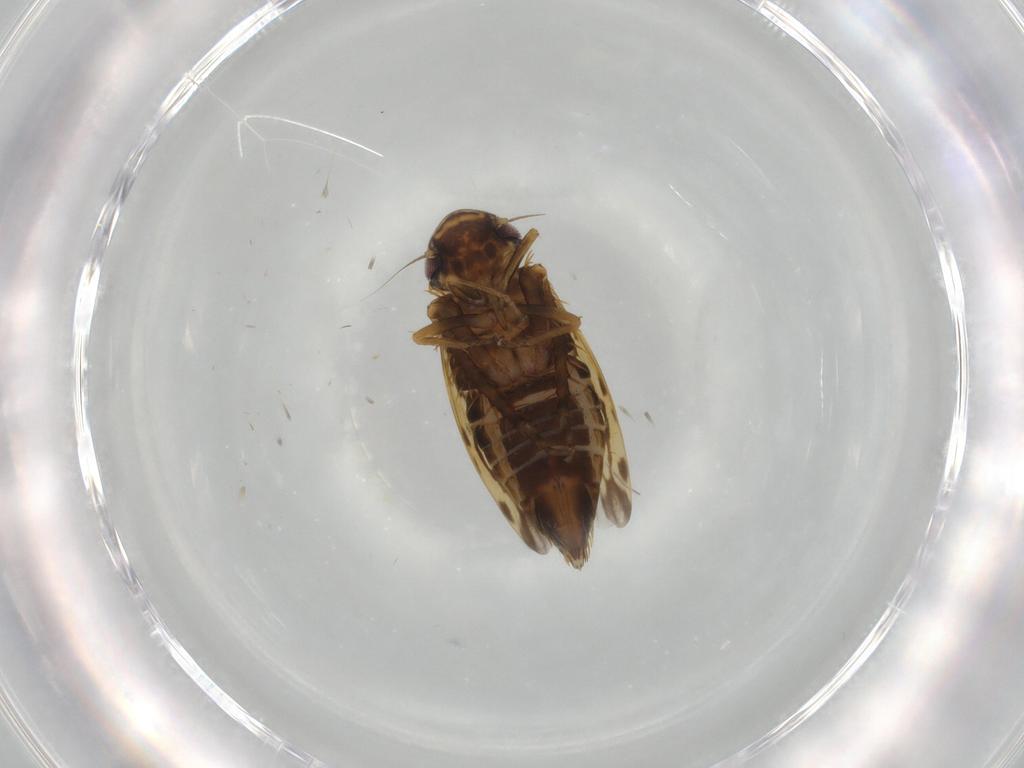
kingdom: Animalia
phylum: Arthropoda
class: Insecta
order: Hemiptera
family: Cicadellidae
